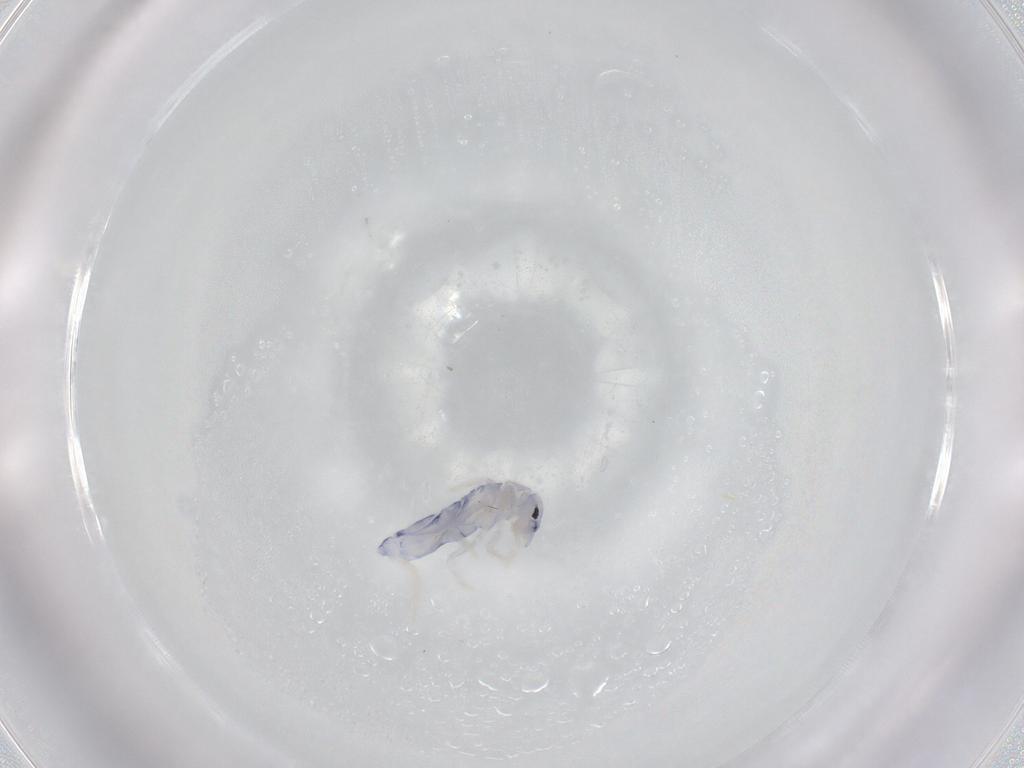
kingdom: Animalia
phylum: Arthropoda
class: Collembola
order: Entomobryomorpha
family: Entomobryidae
